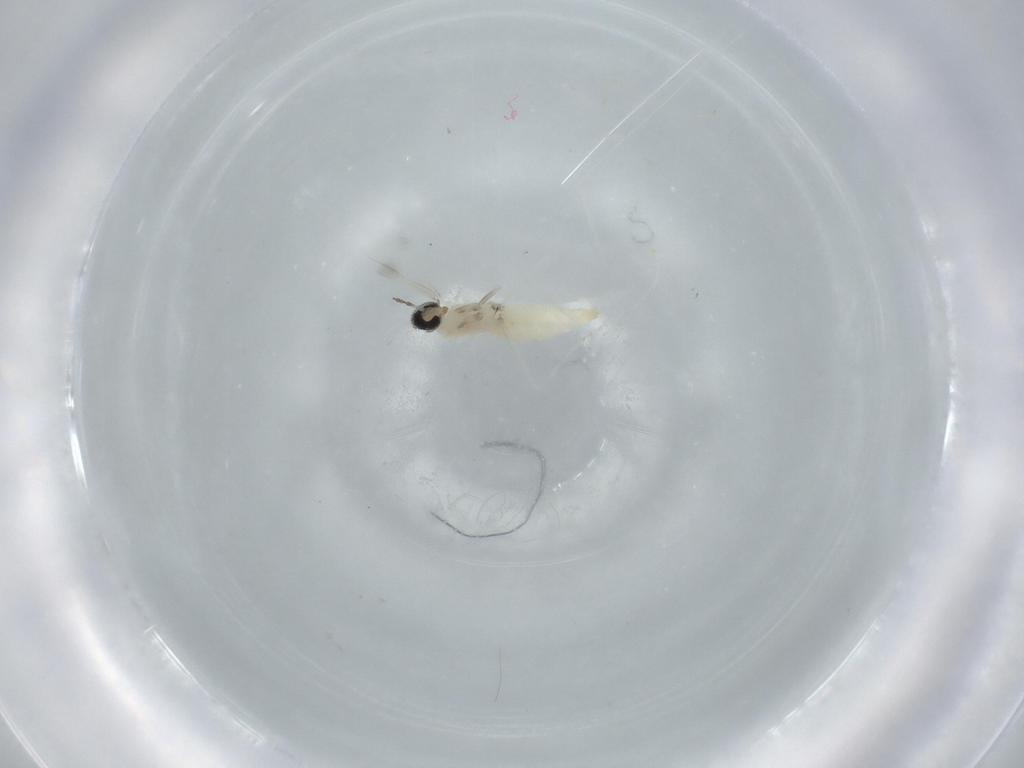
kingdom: Animalia
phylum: Arthropoda
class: Insecta
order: Diptera
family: Cecidomyiidae
